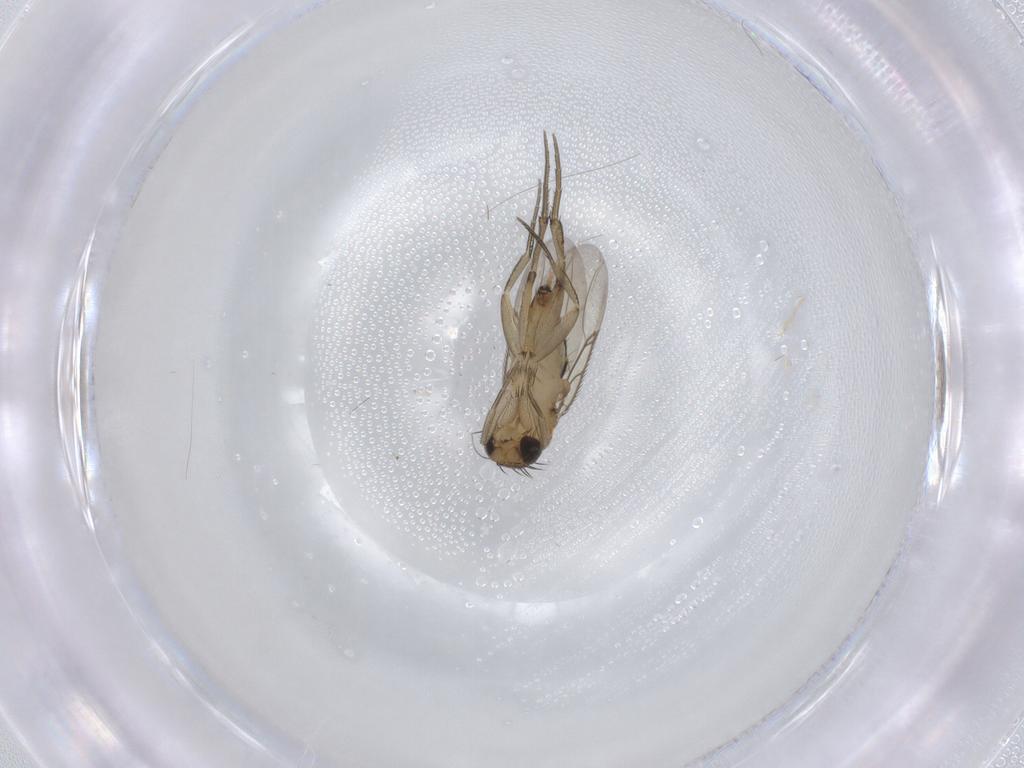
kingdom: Animalia
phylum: Arthropoda
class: Insecta
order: Diptera
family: Phoridae
